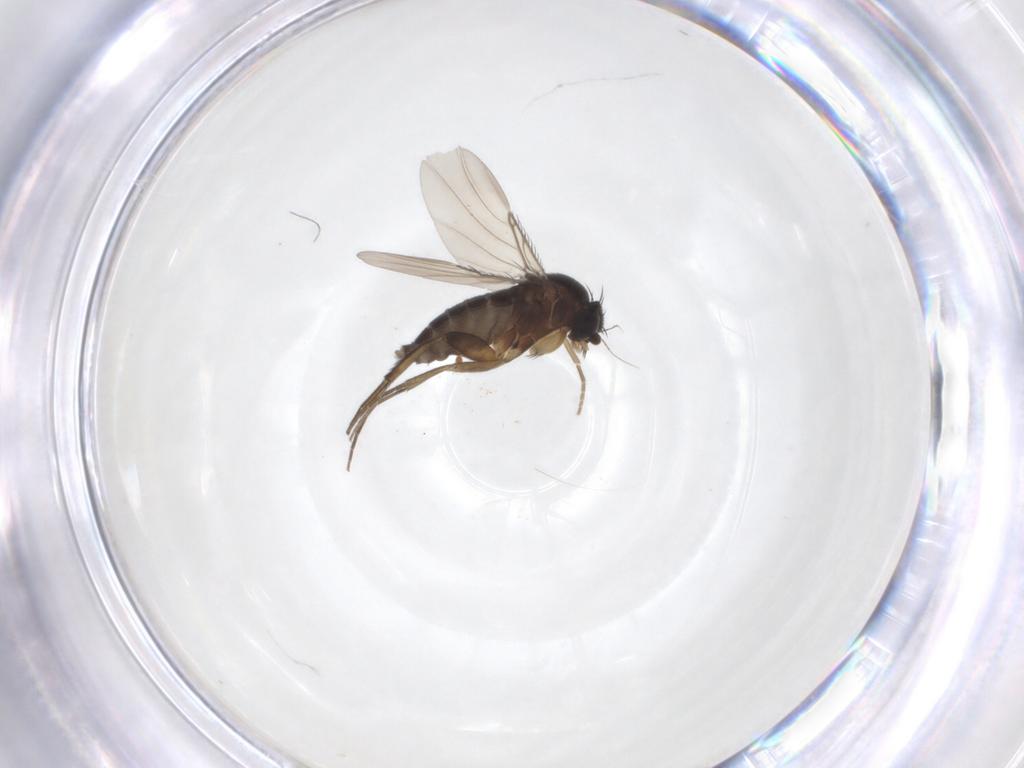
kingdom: Animalia
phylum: Arthropoda
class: Insecta
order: Diptera
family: Phoridae
